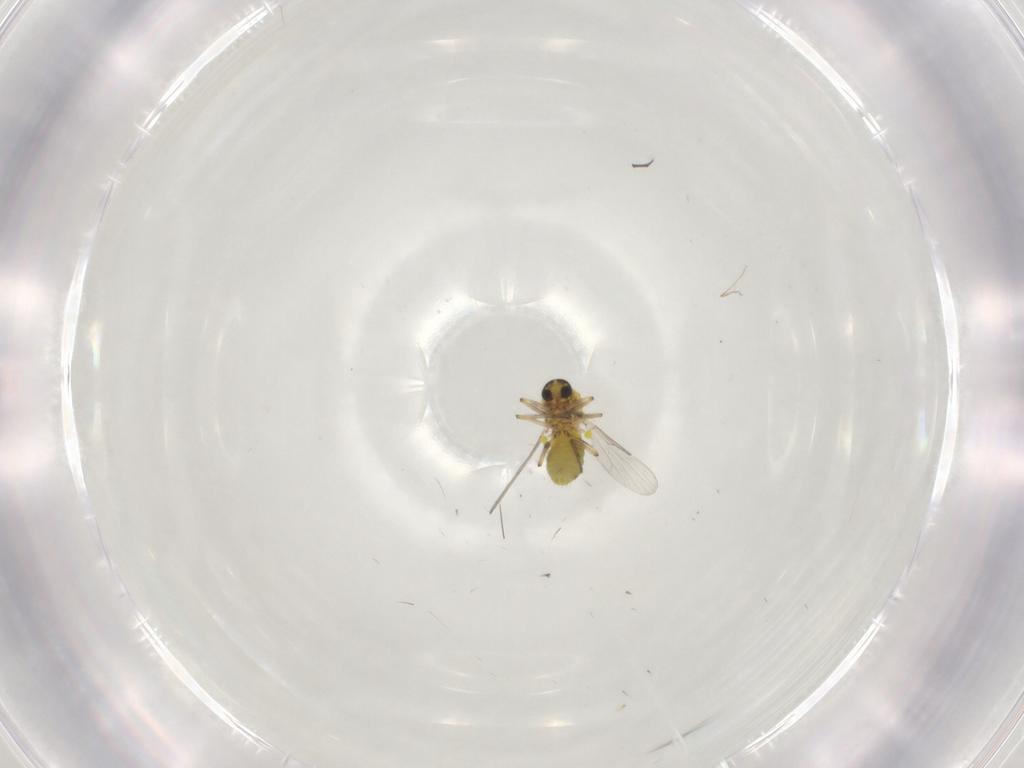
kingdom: Animalia
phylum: Arthropoda
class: Insecta
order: Diptera
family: Ceratopogonidae
